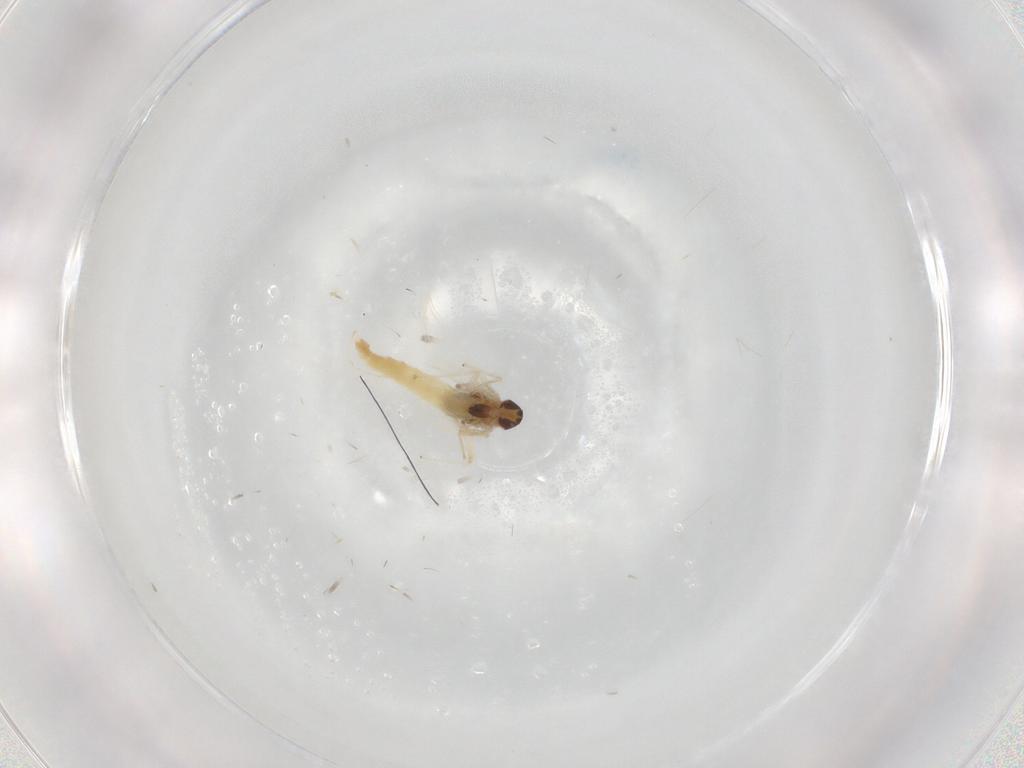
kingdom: Animalia
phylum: Arthropoda
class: Insecta
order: Diptera
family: Chironomidae
